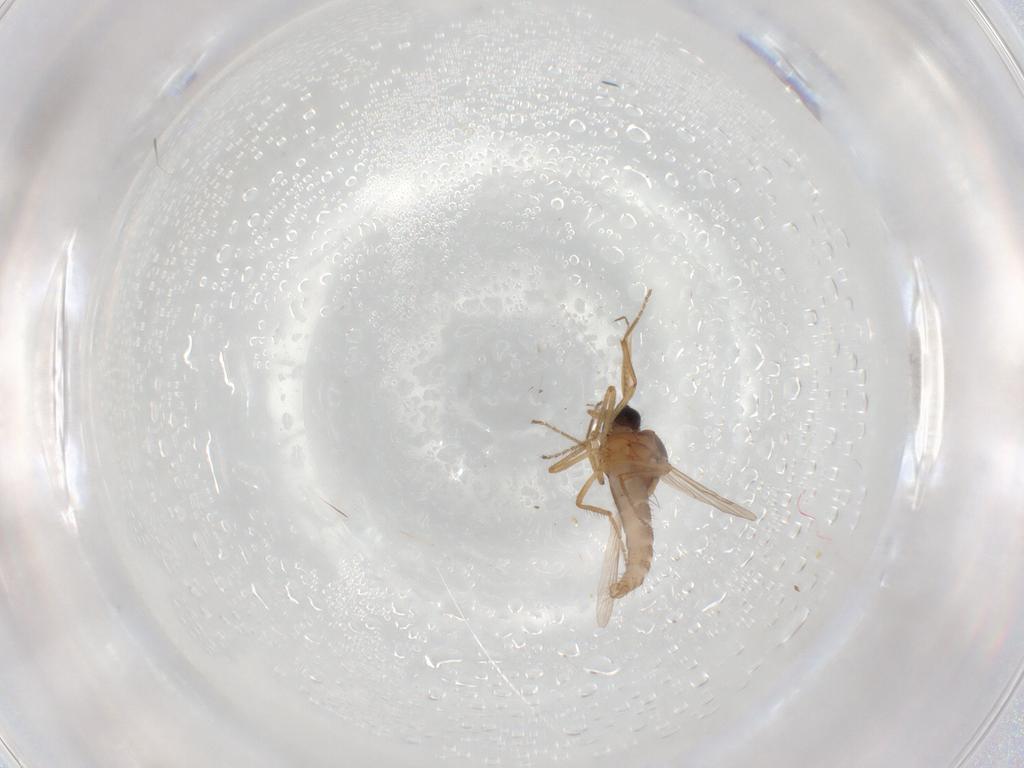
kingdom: Animalia
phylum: Arthropoda
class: Insecta
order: Diptera
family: Ceratopogonidae
